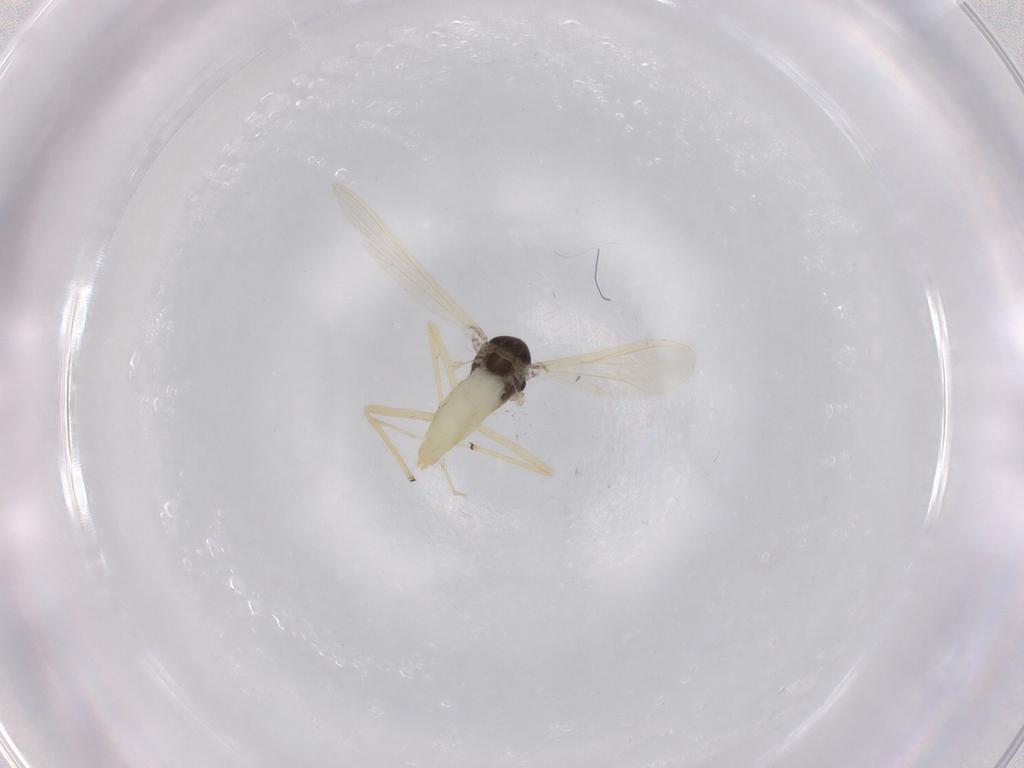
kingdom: Animalia
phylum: Arthropoda
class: Insecta
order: Diptera
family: Chironomidae
